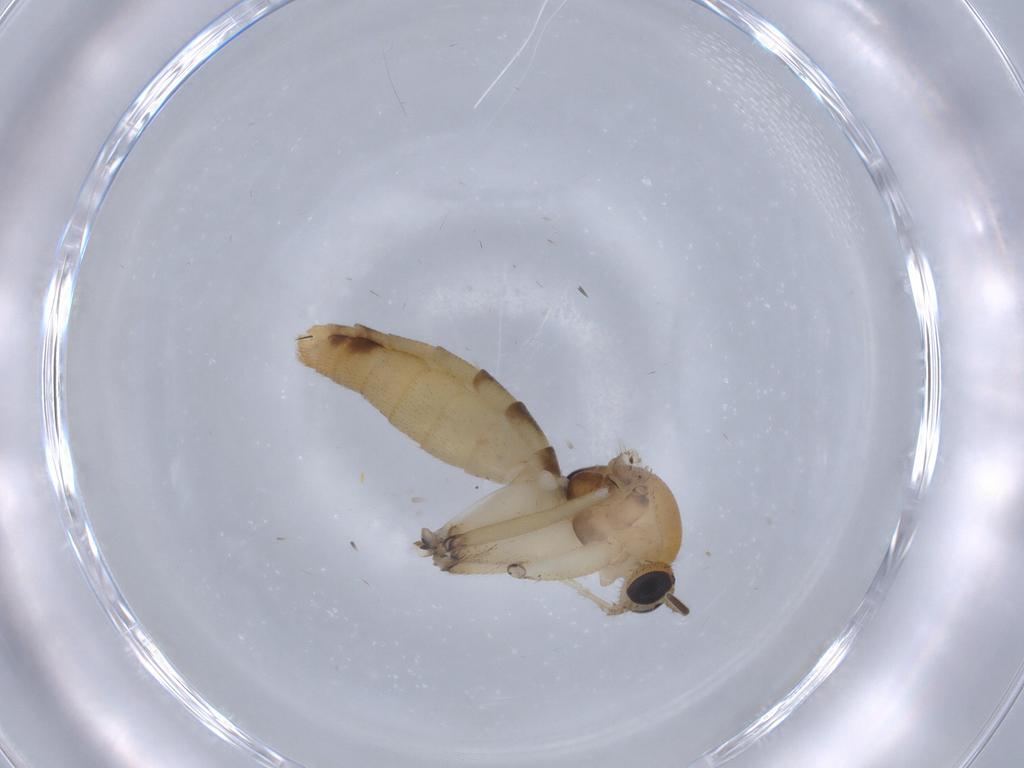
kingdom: Animalia
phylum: Arthropoda
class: Insecta
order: Diptera
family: Mycetophilidae
